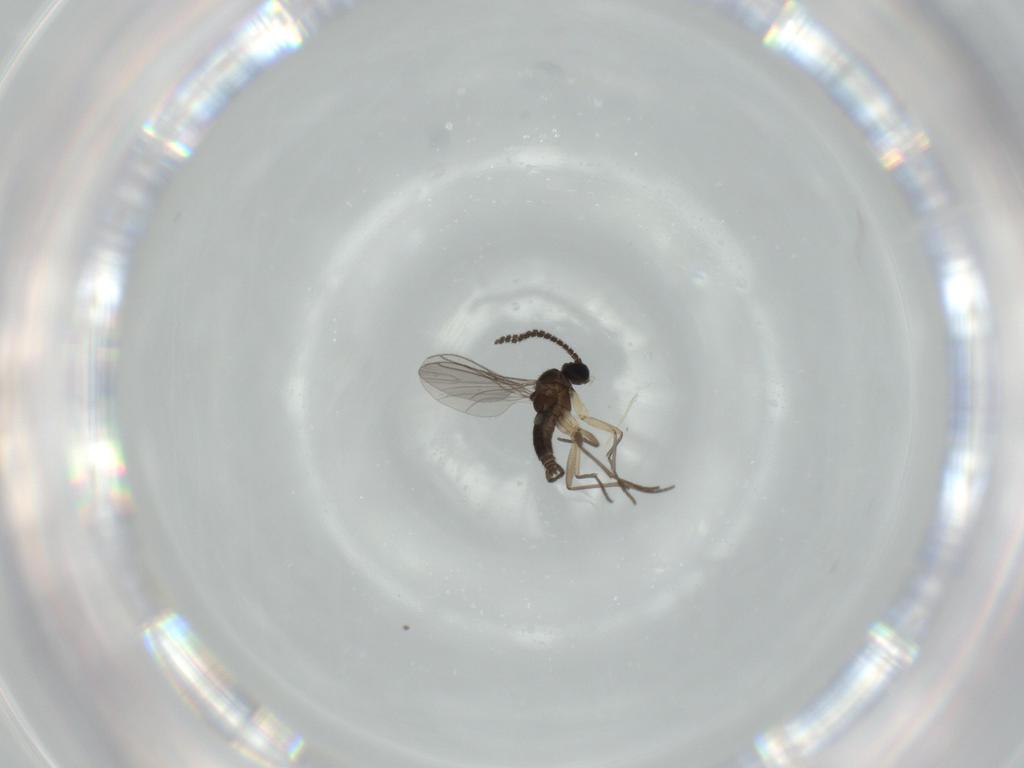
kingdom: Animalia
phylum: Arthropoda
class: Insecta
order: Diptera
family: Sciaridae
